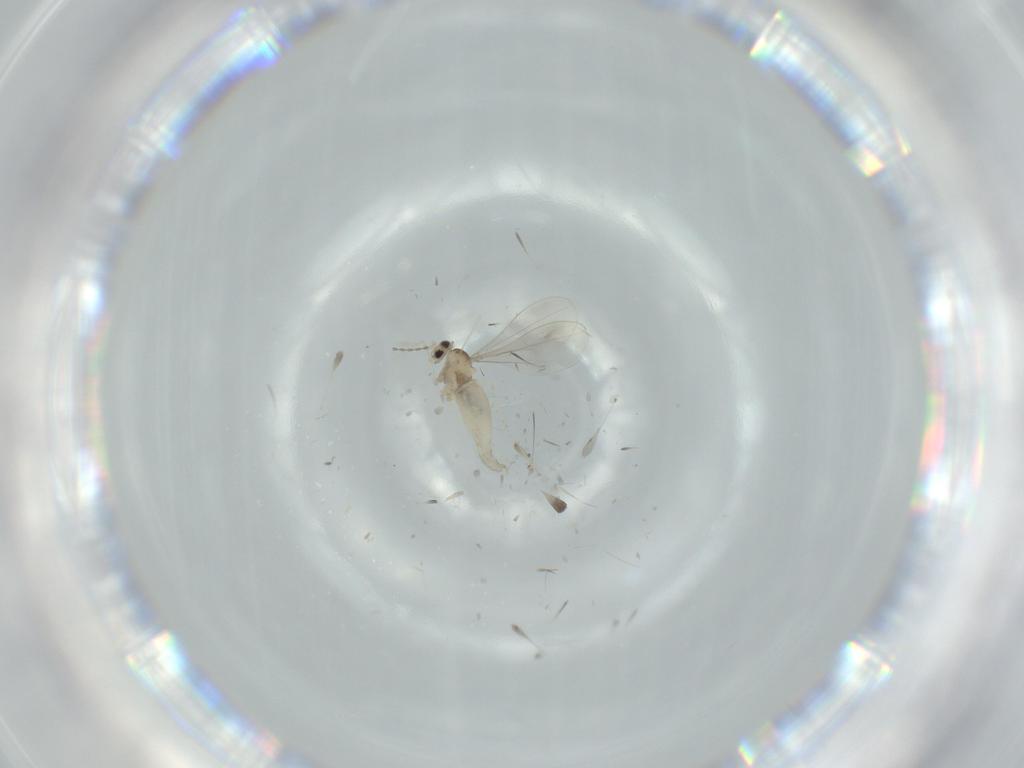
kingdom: Animalia
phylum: Arthropoda
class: Insecta
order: Diptera
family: Cecidomyiidae
